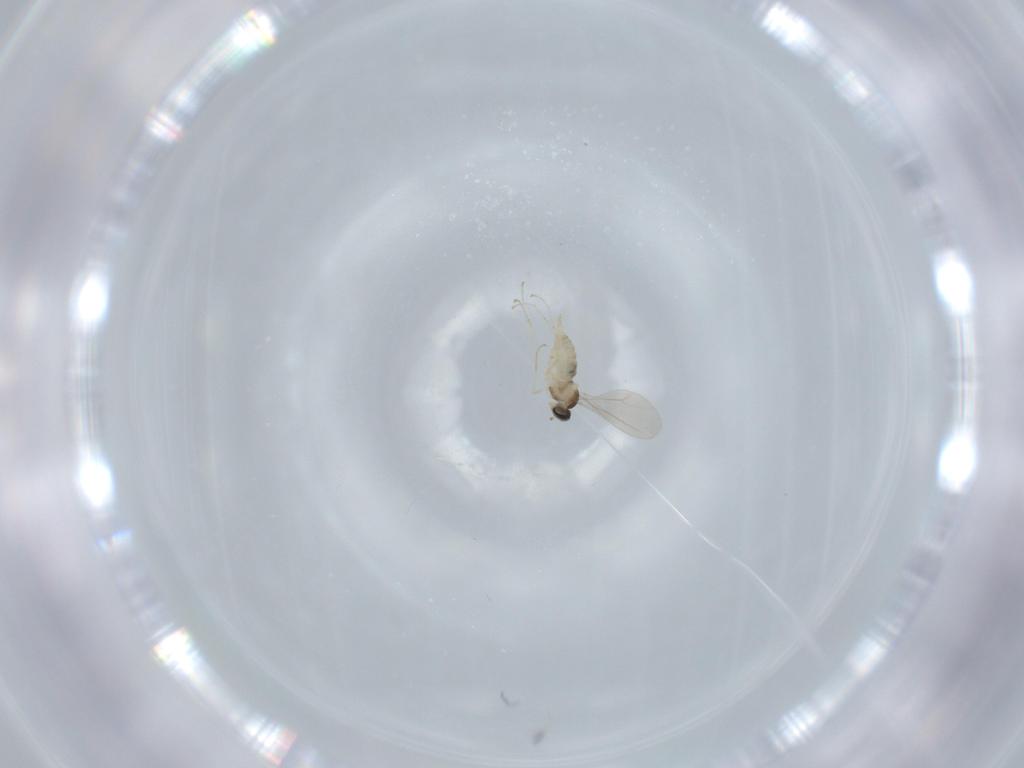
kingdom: Animalia
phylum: Arthropoda
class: Insecta
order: Diptera
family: Cecidomyiidae
